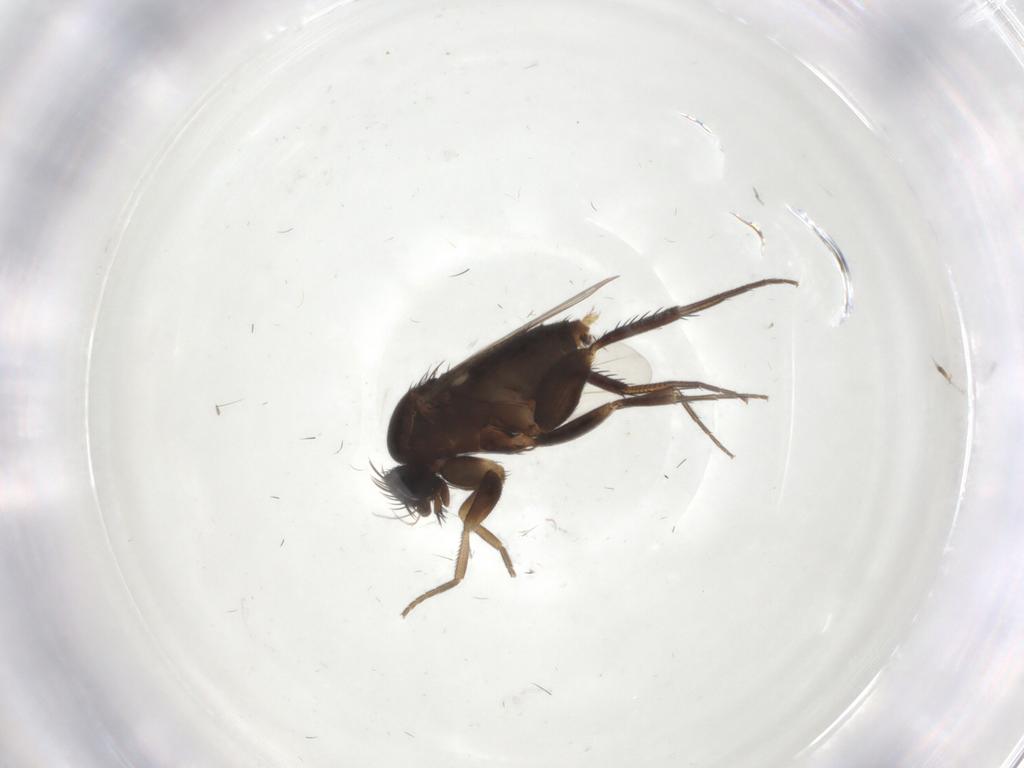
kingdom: Animalia
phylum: Arthropoda
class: Insecta
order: Diptera
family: Phoridae
